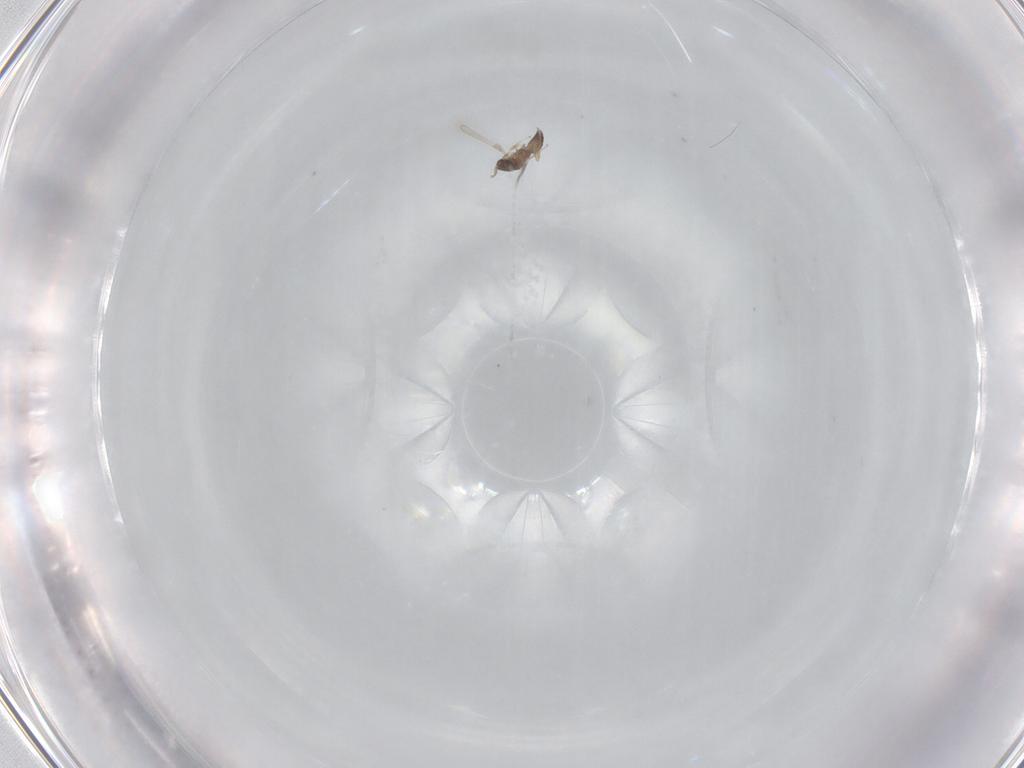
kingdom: Animalia
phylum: Arthropoda
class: Insecta
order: Hymenoptera
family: Mymaridae
